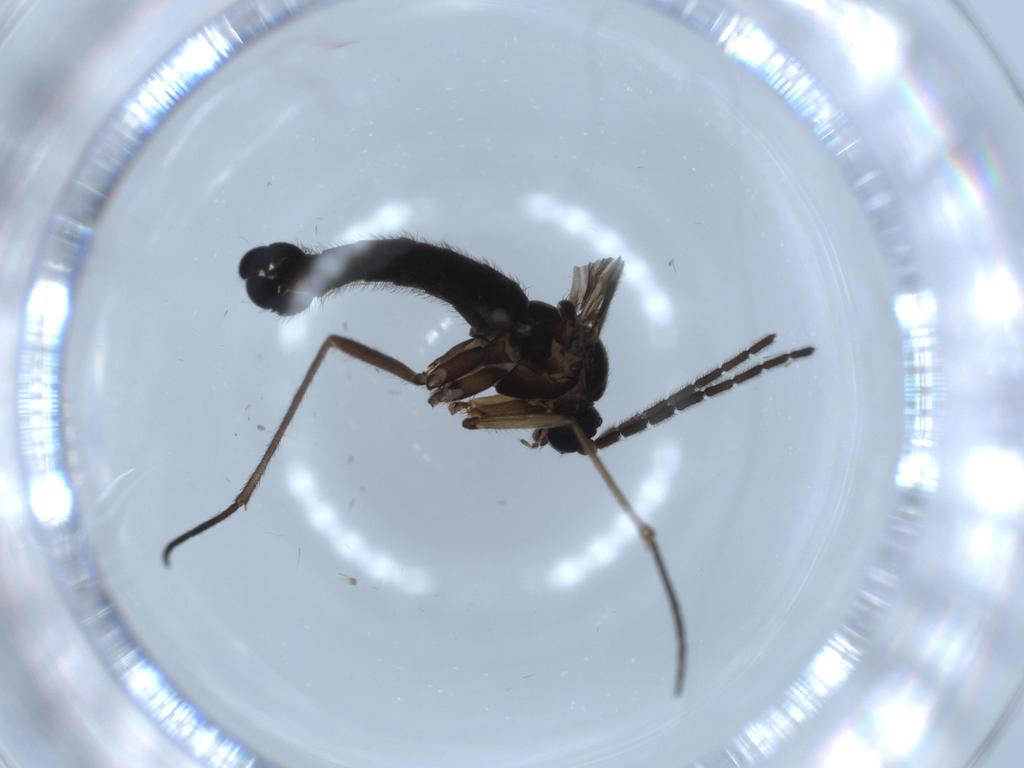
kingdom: Animalia
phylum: Arthropoda
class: Insecta
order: Diptera
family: Sciaridae
